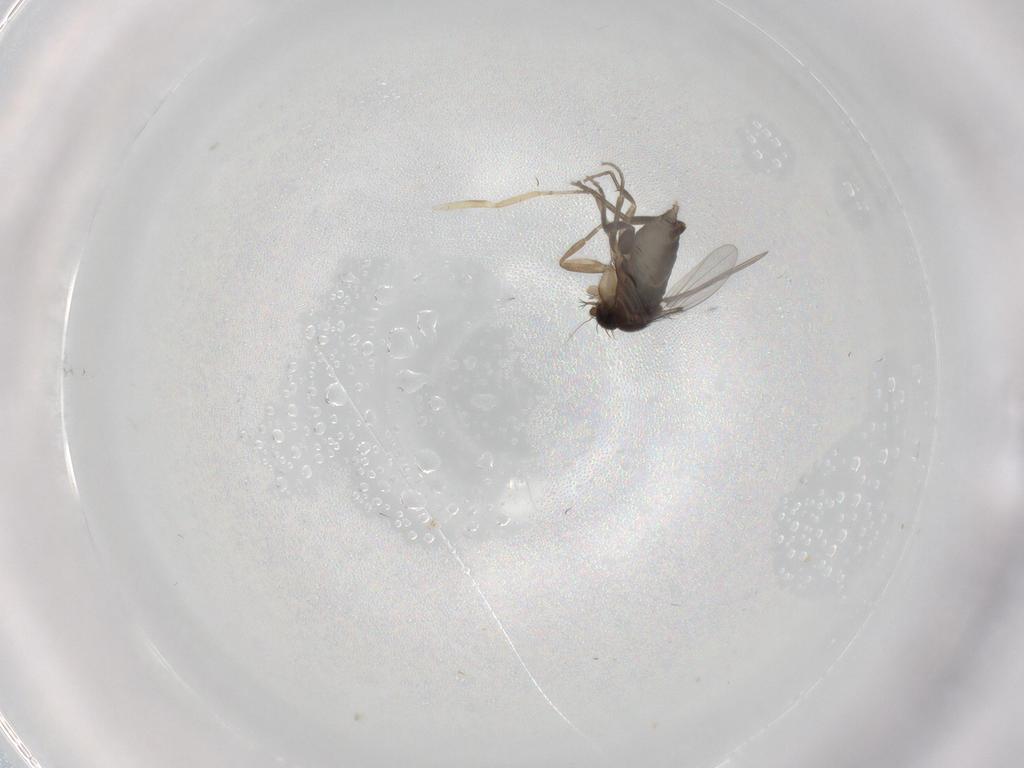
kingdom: Animalia
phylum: Arthropoda
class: Insecta
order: Diptera
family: Phoridae
